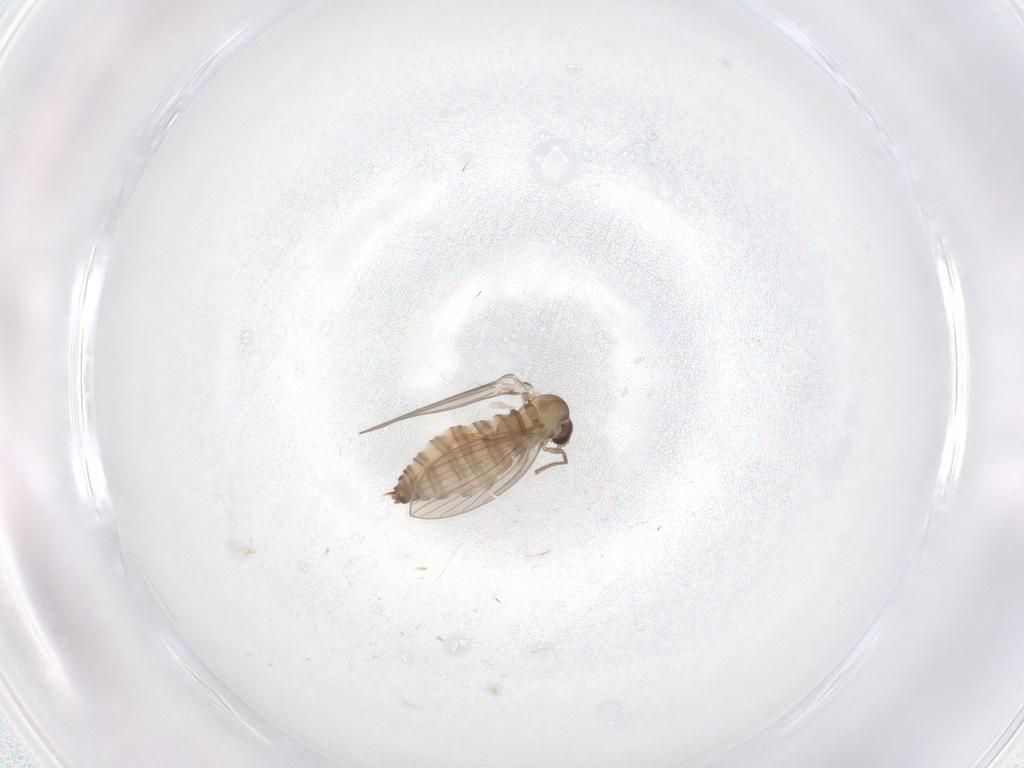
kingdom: Animalia
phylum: Arthropoda
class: Insecta
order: Diptera
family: Psychodidae
